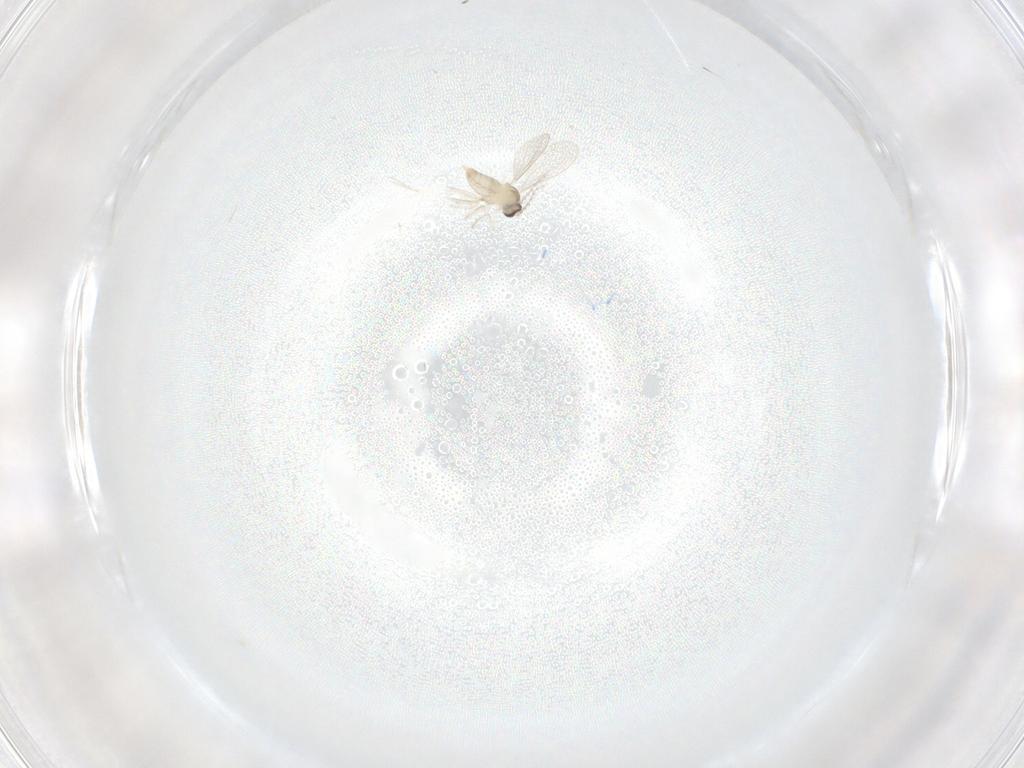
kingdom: Animalia
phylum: Arthropoda
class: Insecta
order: Diptera
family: Cecidomyiidae
